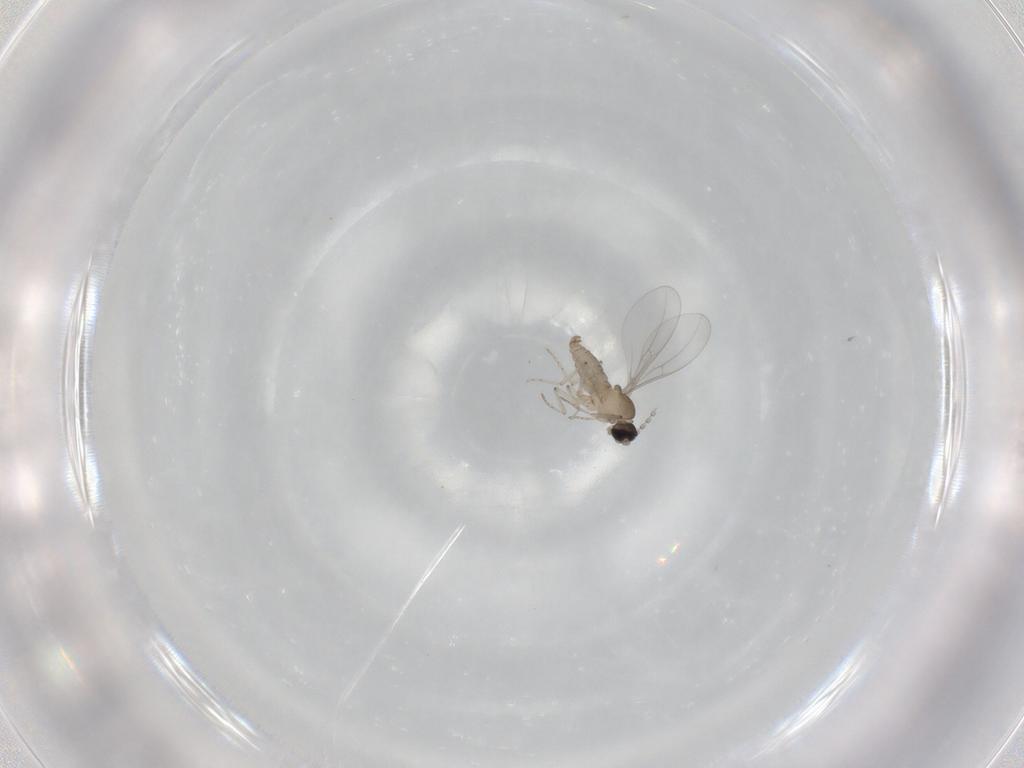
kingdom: Animalia
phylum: Arthropoda
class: Insecta
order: Diptera
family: Cecidomyiidae
